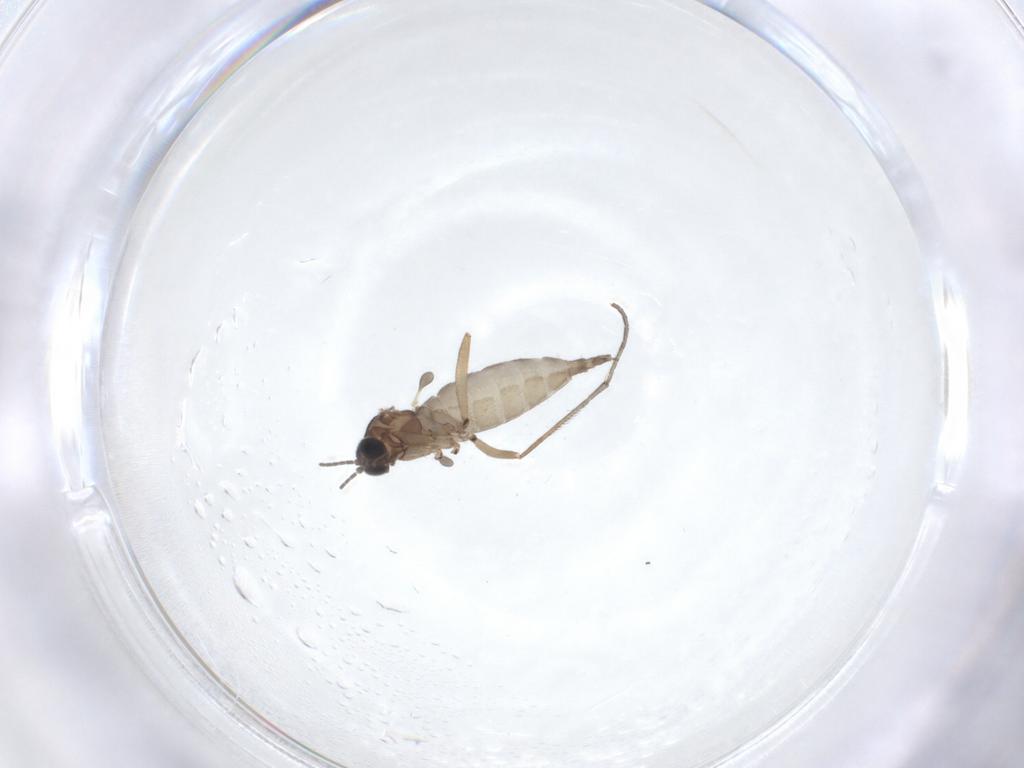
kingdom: Animalia
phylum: Arthropoda
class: Insecta
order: Diptera
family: Sciaridae
